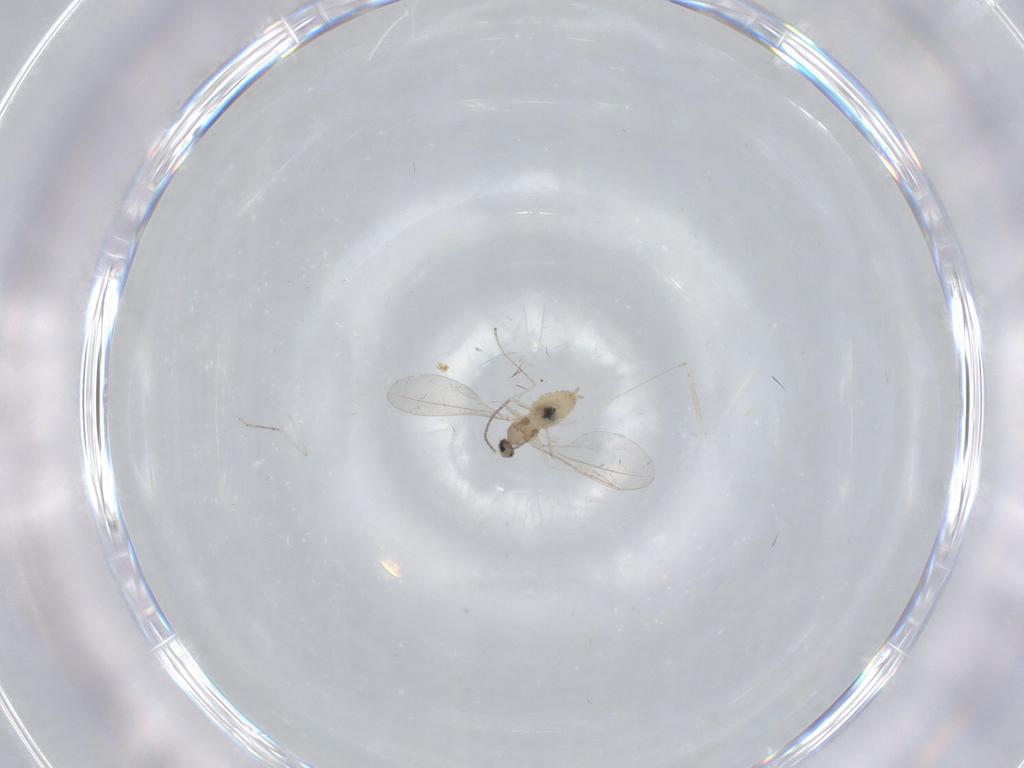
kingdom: Animalia
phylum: Arthropoda
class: Insecta
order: Diptera
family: Cecidomyiidae
